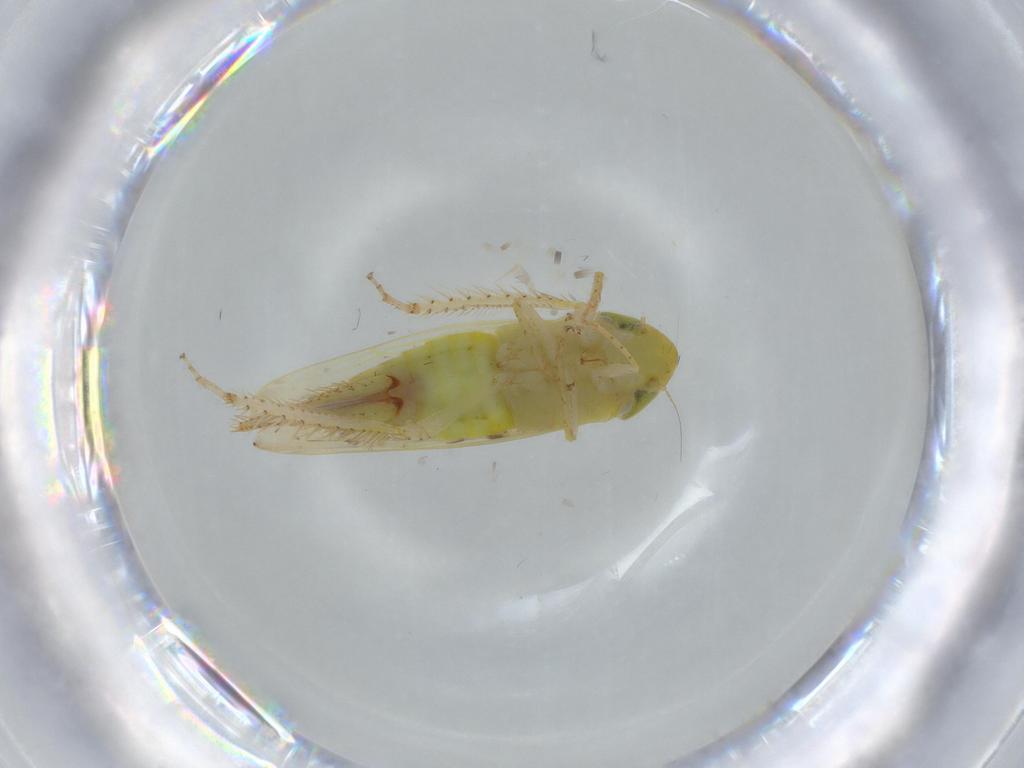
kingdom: Animalia
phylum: Arthropoda
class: Insecta
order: Hemiptera
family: Cicadellidae
